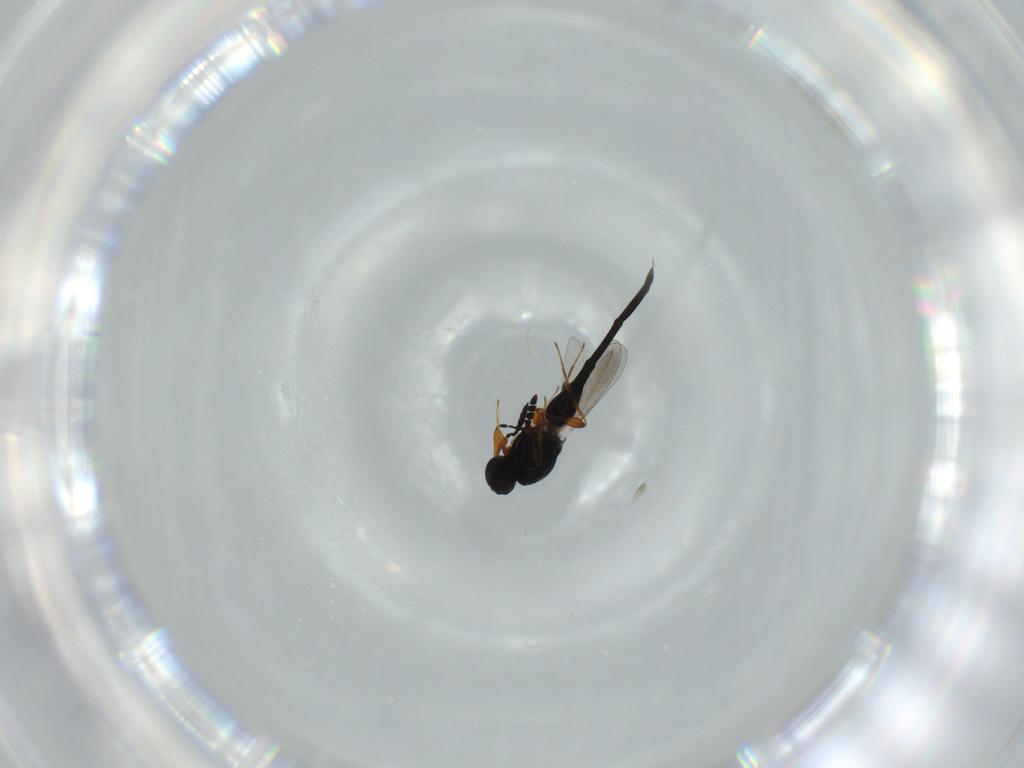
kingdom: Animalia
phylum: Arthropoda
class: Insecta
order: Hymenoptera
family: Platygastridae
